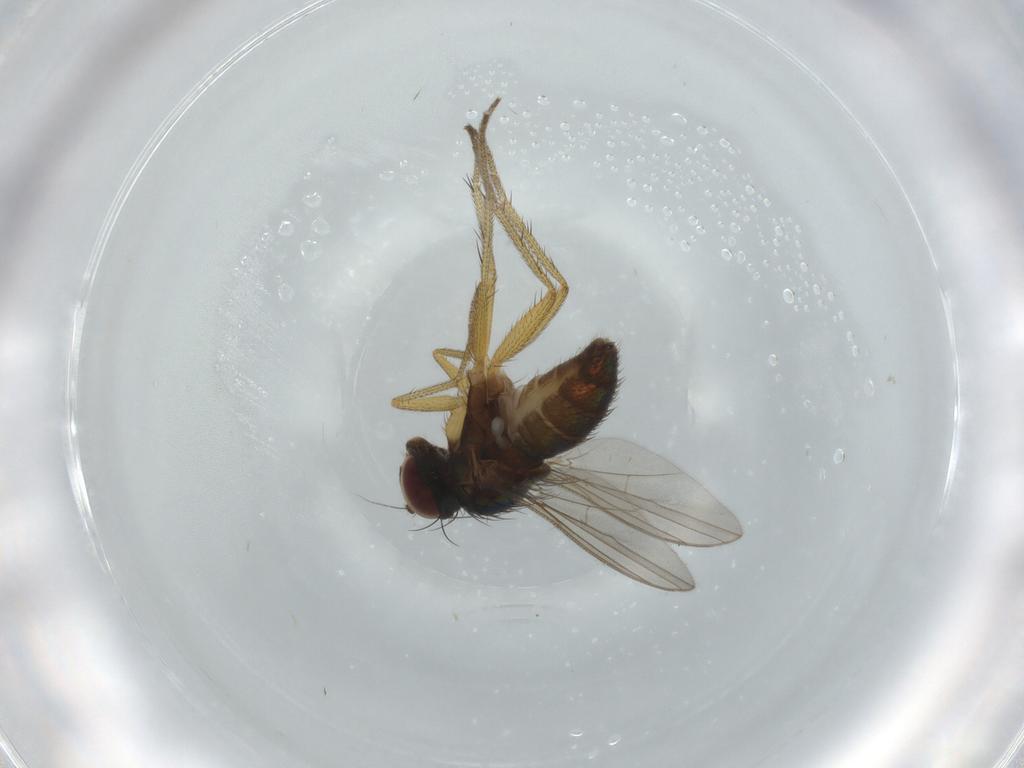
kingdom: Animalia
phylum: Arthropoda
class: Insecta
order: Diptera
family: Dolichopodidae
